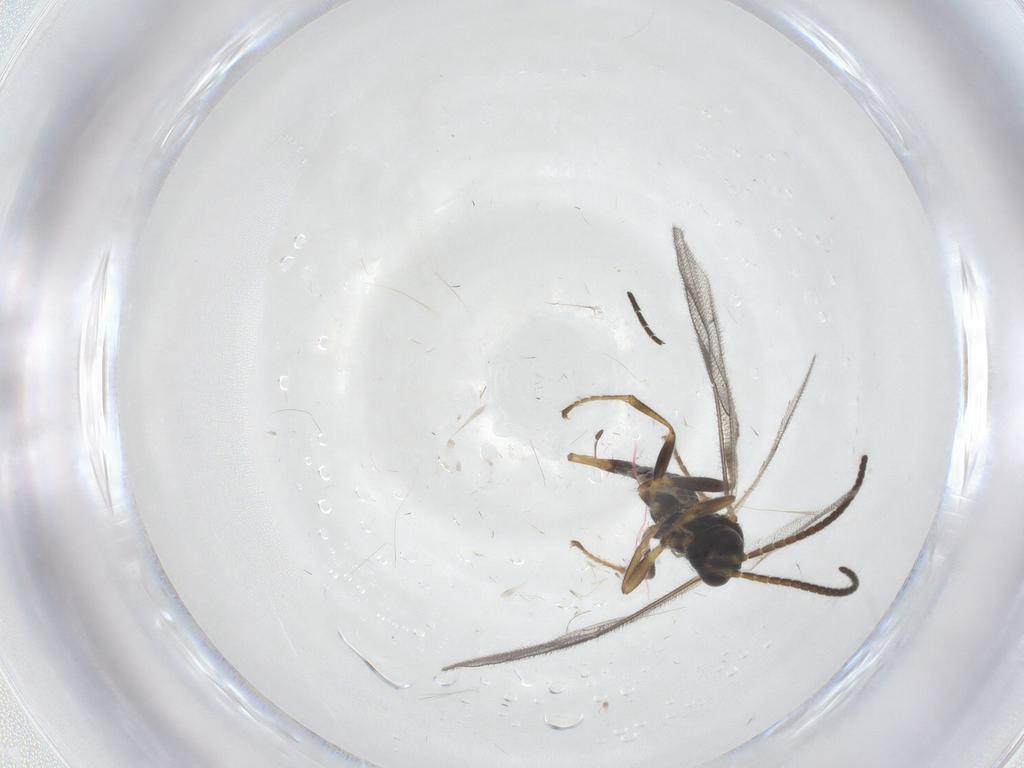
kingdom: Animalia
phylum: Arthropoda
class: Insecta
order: Hymenoptera
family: Ichneumonidae
